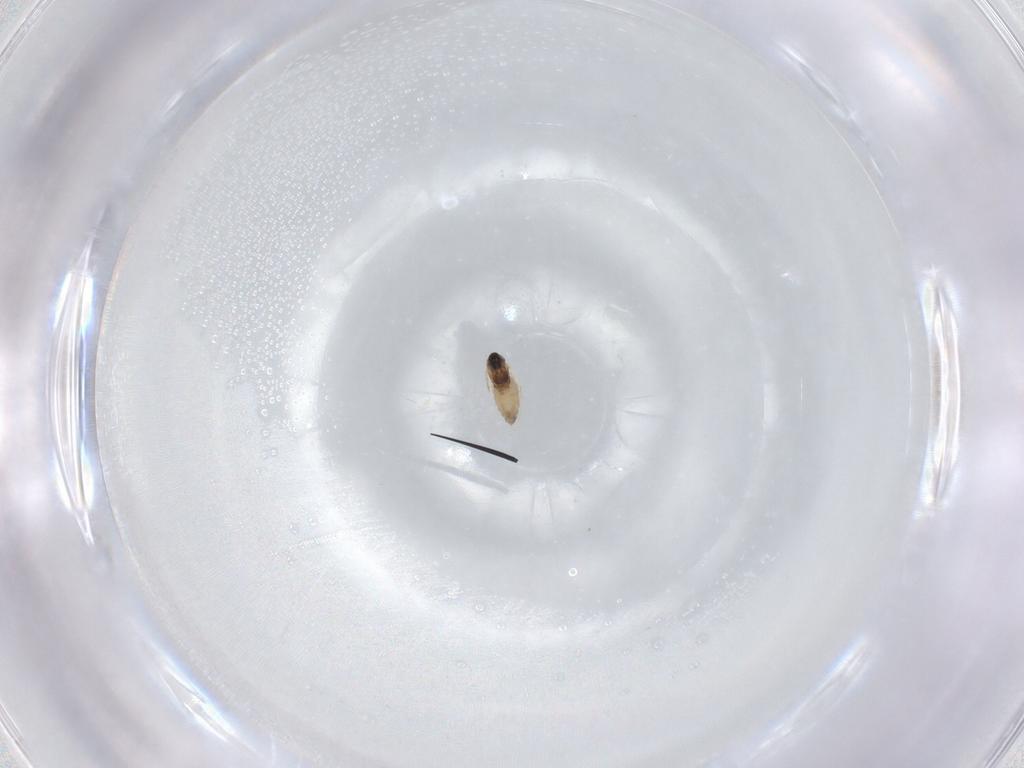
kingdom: Animalia
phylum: Arthropoda
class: Insecta
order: Diptera
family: Cecidomyiidae
